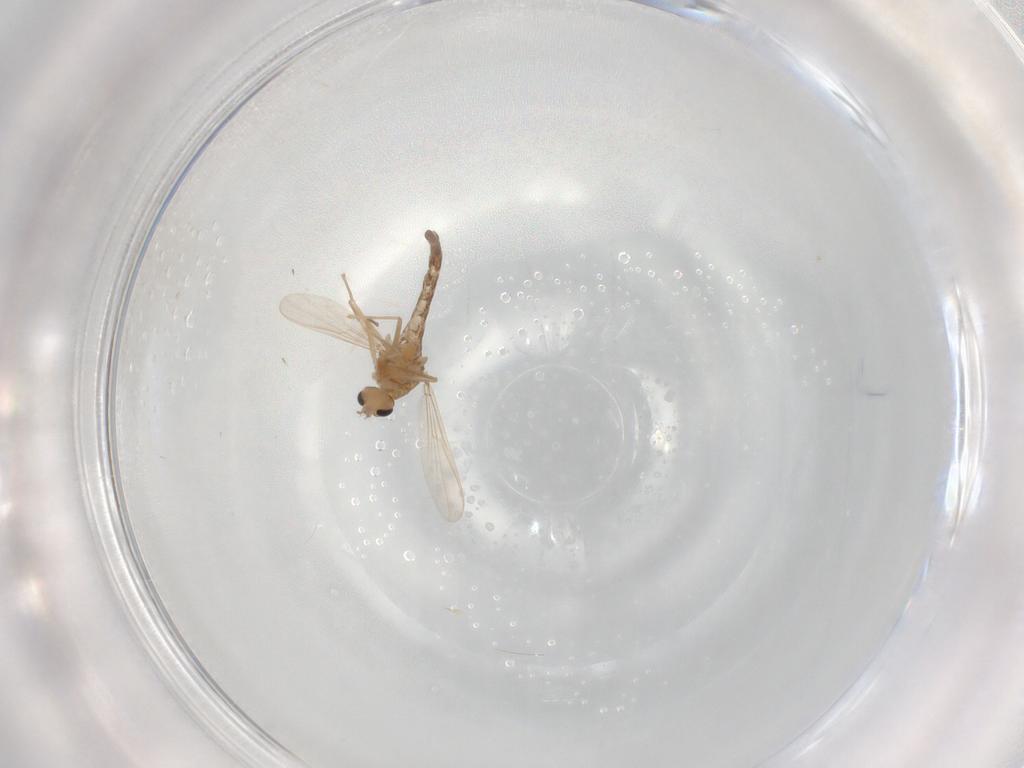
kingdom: Animalia
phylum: Arthropoda
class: Insecta
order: Diptera
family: Chironomidae
